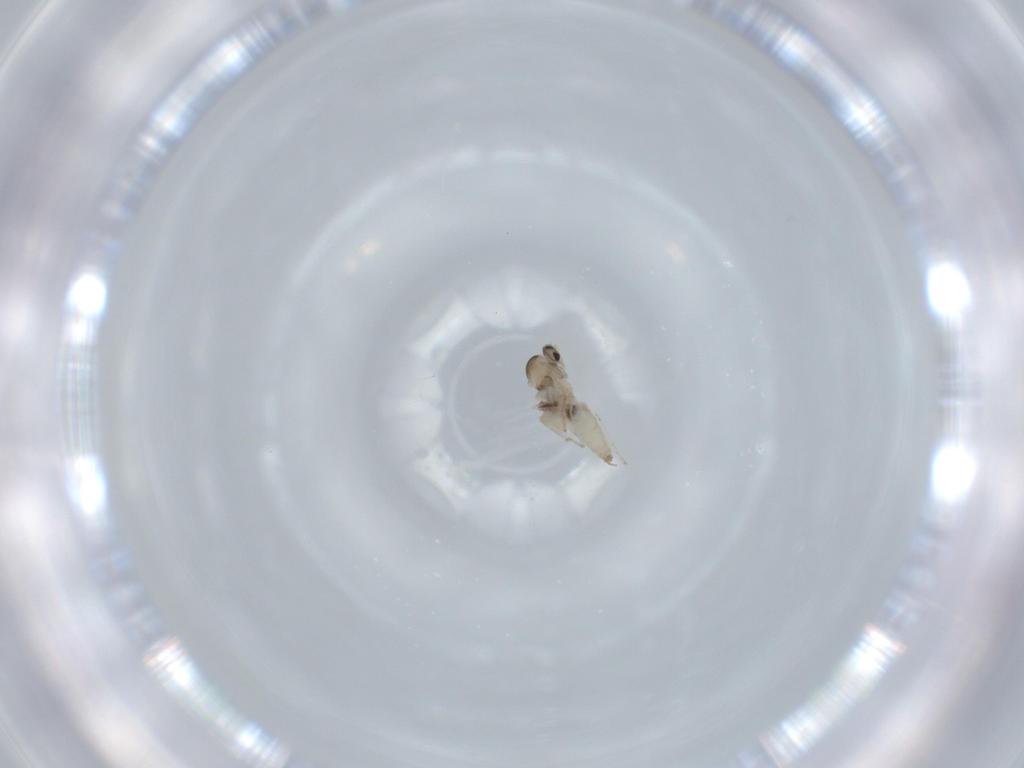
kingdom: Animalia
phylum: Arthropoda
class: Insecta
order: Diptera
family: Cecidomyiidae
